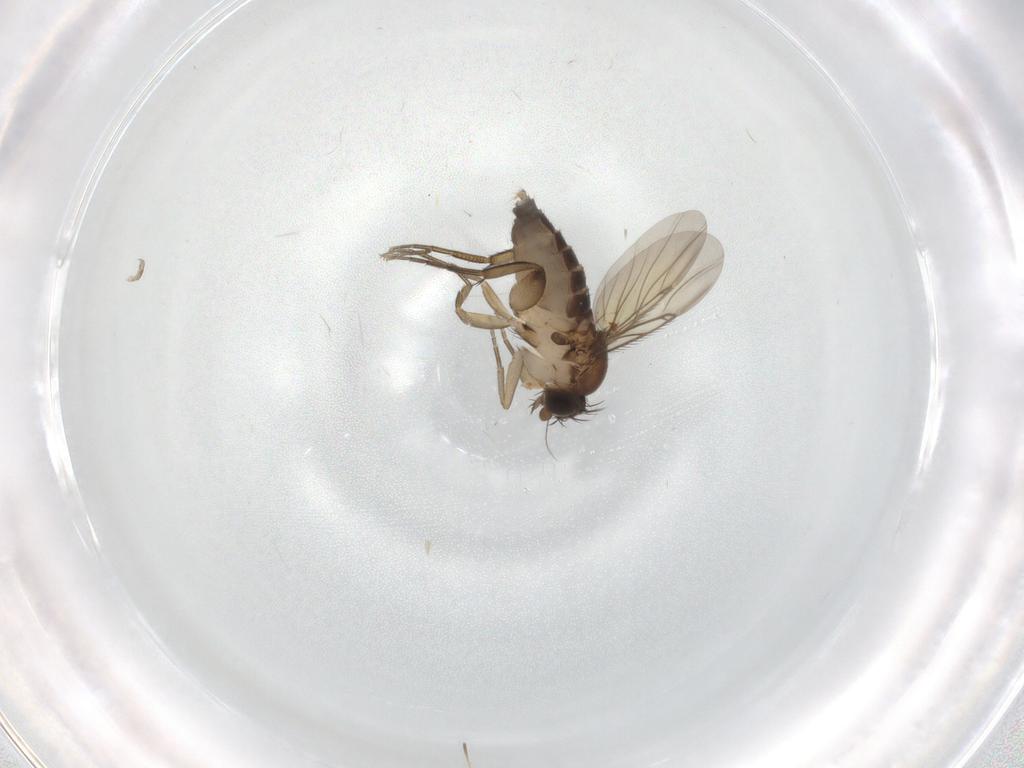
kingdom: Animalia
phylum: Arthropoda
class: Insecta
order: Diptera
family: Phoridae
